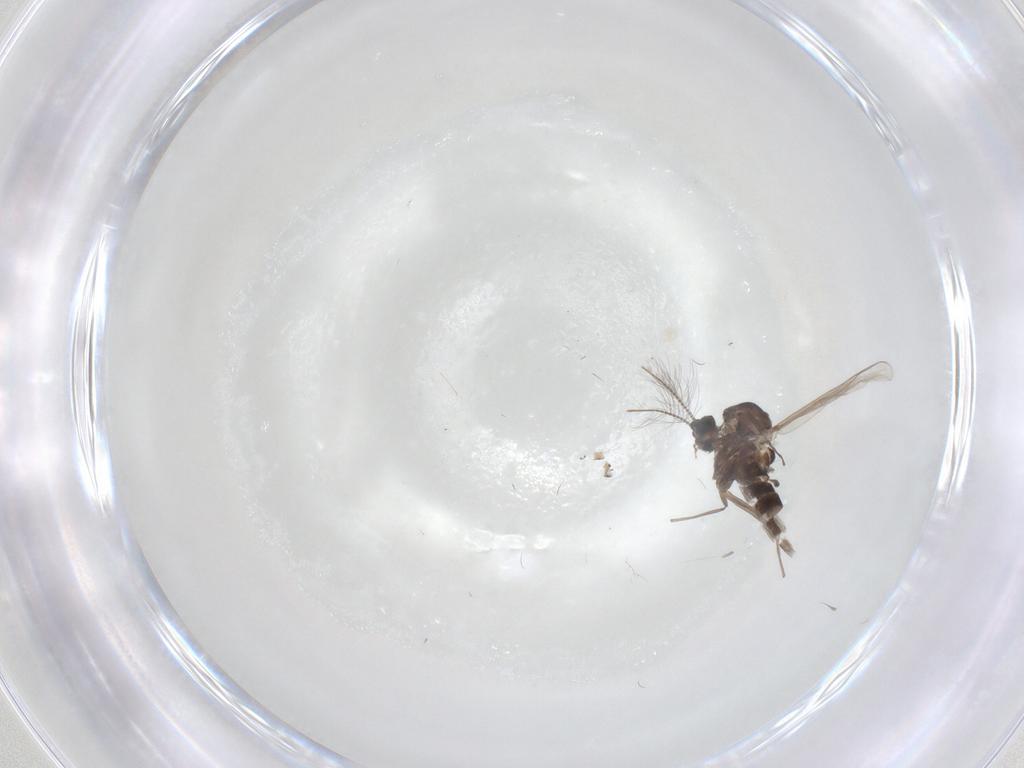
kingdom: Animalia
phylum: Arthropoda
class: Insecta
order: Diptera
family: Chironomidae
